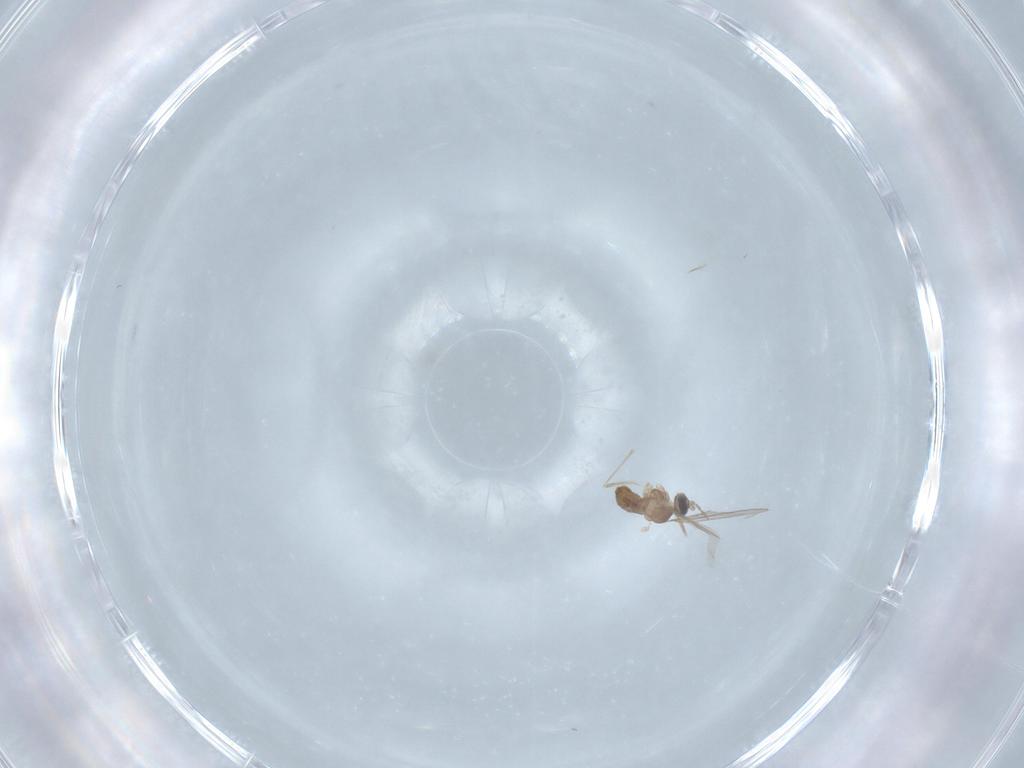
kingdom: Animalia
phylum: Arthropoda
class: Insecta
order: Diptera
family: Cecidomyiidae
